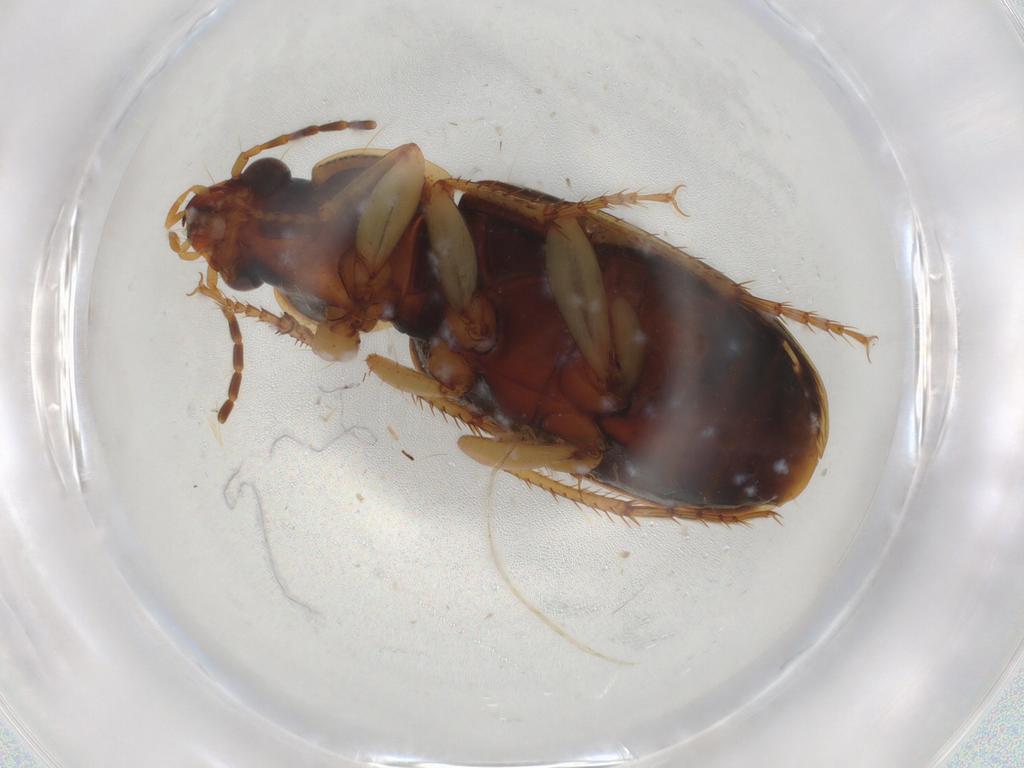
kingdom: Animalia
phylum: Arthropoda
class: Insecta
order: Coleoptera
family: Carabidae
